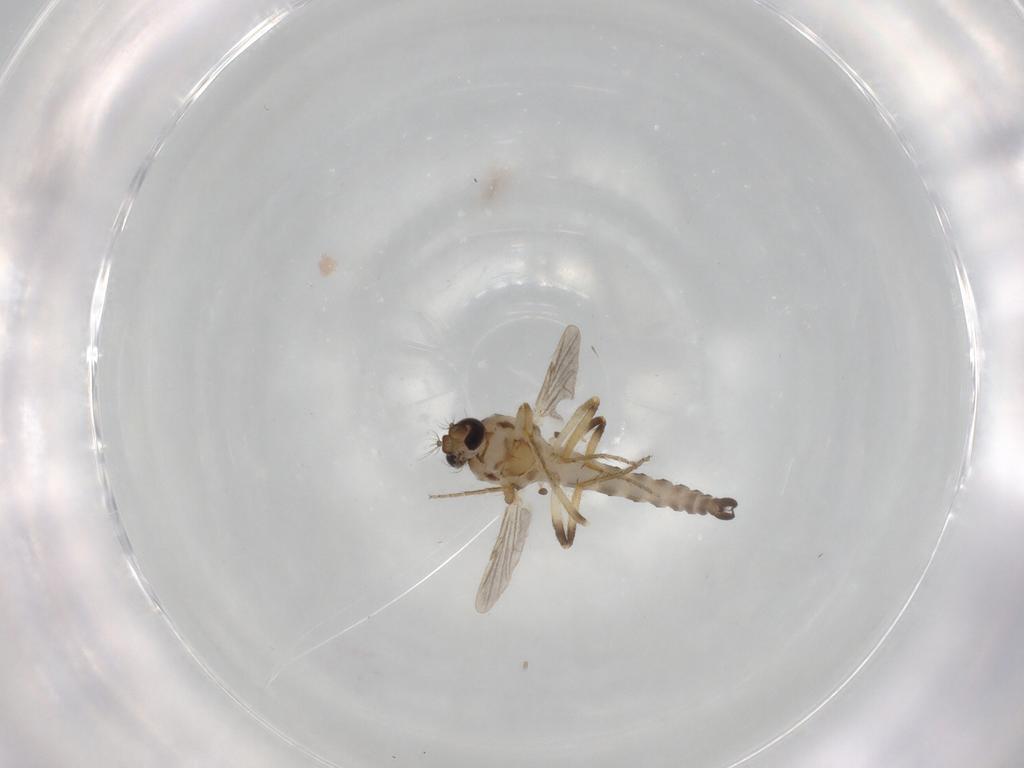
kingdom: Animalia
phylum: Arthropoda
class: Insecta
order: Diptera
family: Ceratopogonidae
